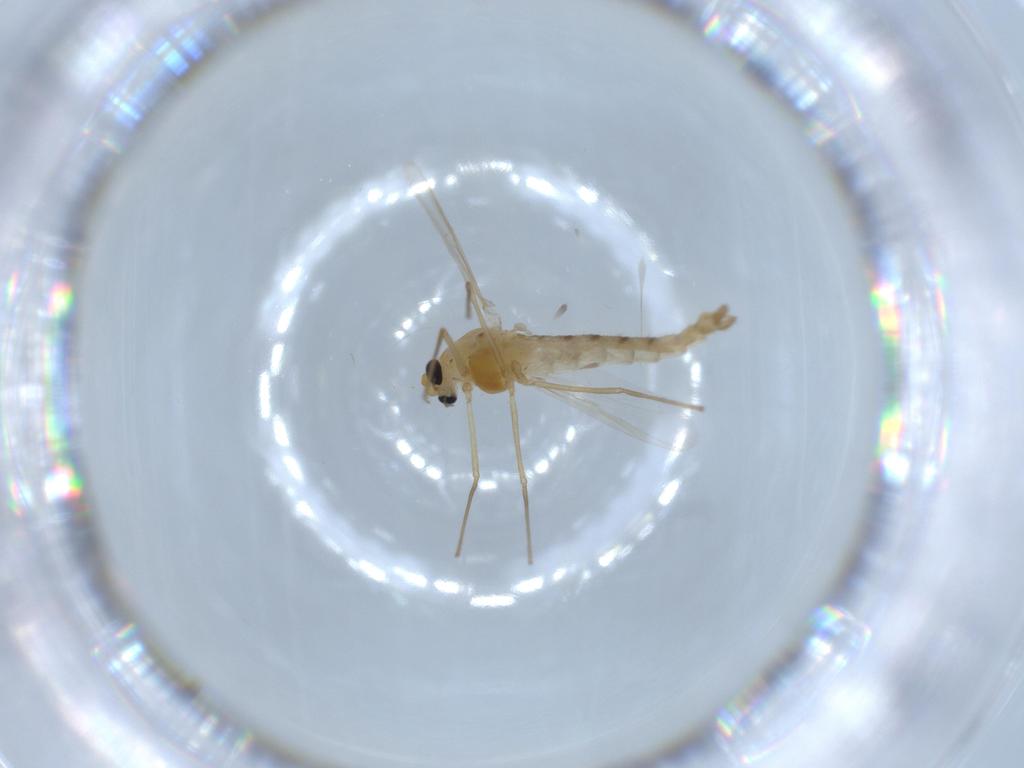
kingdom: Animalia
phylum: Arthropoda
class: Insecta
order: Diptera
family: Chironomidae
